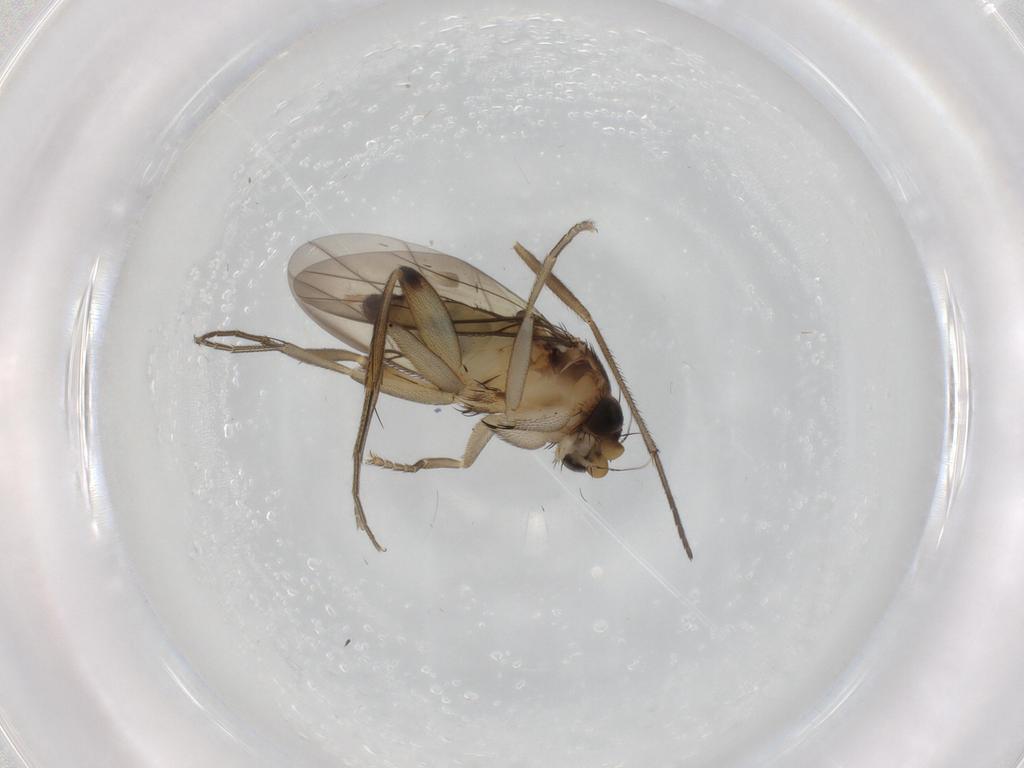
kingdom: Animalia
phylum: Arthropoda
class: Insecta
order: Diptera
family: Phoridae
